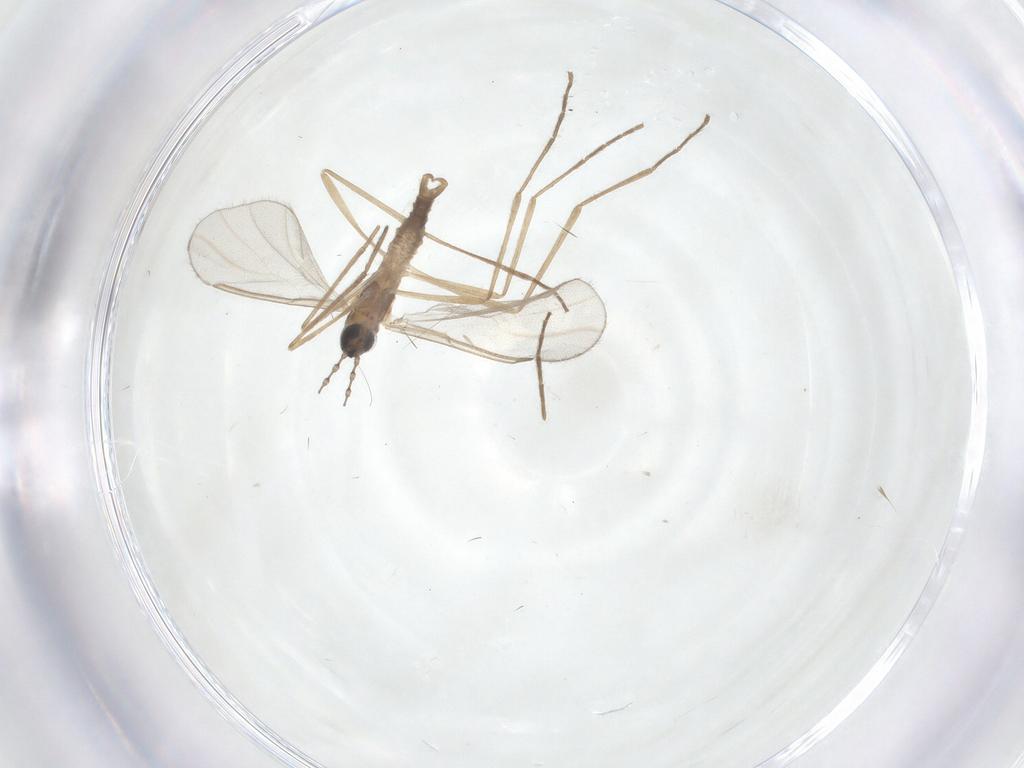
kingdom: Animalia
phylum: Arthropoda
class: Insecta
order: Diptera
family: Cecidomyiidae
